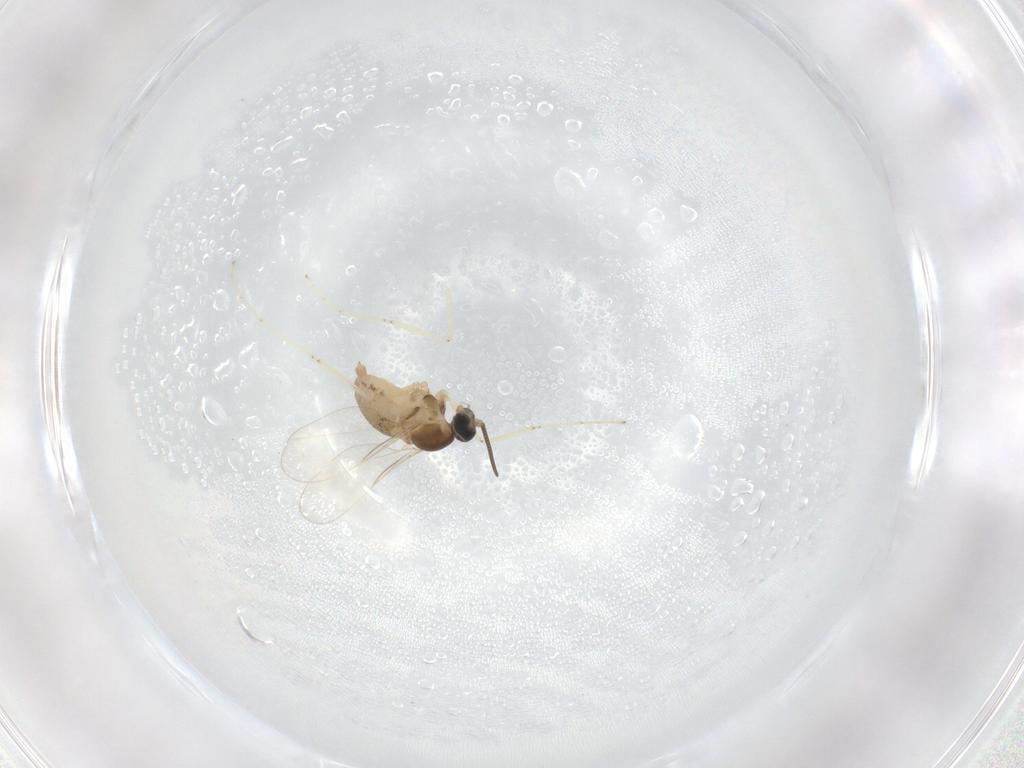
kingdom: Animalia
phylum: Arthropoda
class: Insecta
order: Diptera
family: Cecidomyiidae
